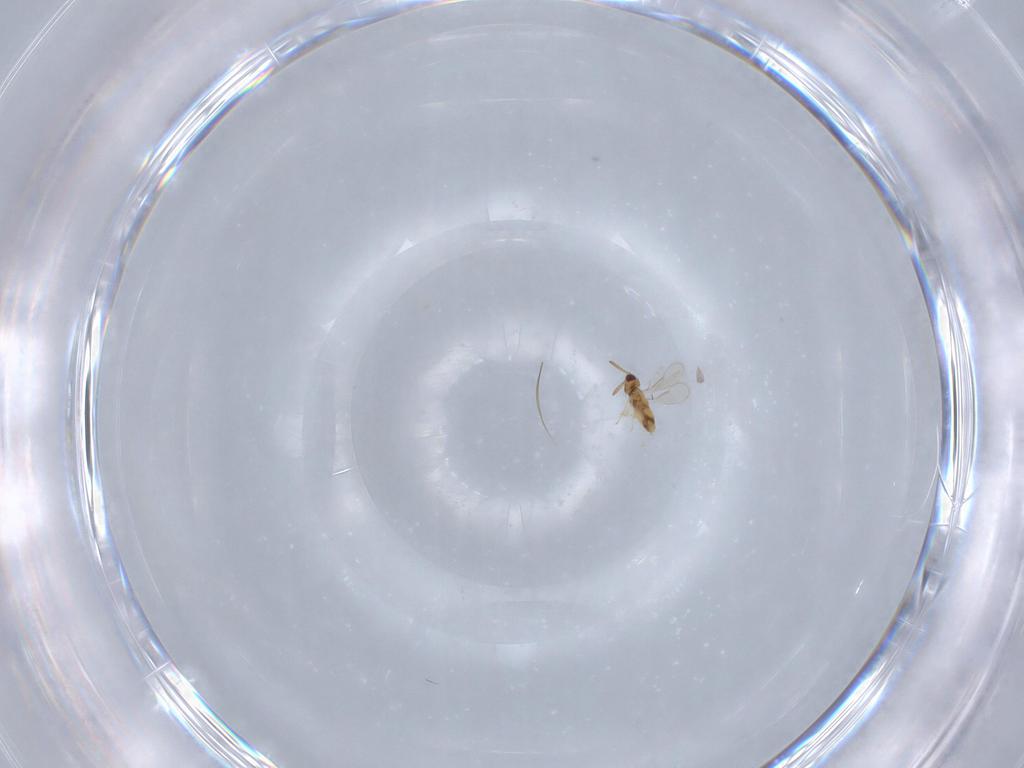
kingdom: Animalia
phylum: Arthropoda
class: Insecta
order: Hymenoptera
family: Aphelinidae
